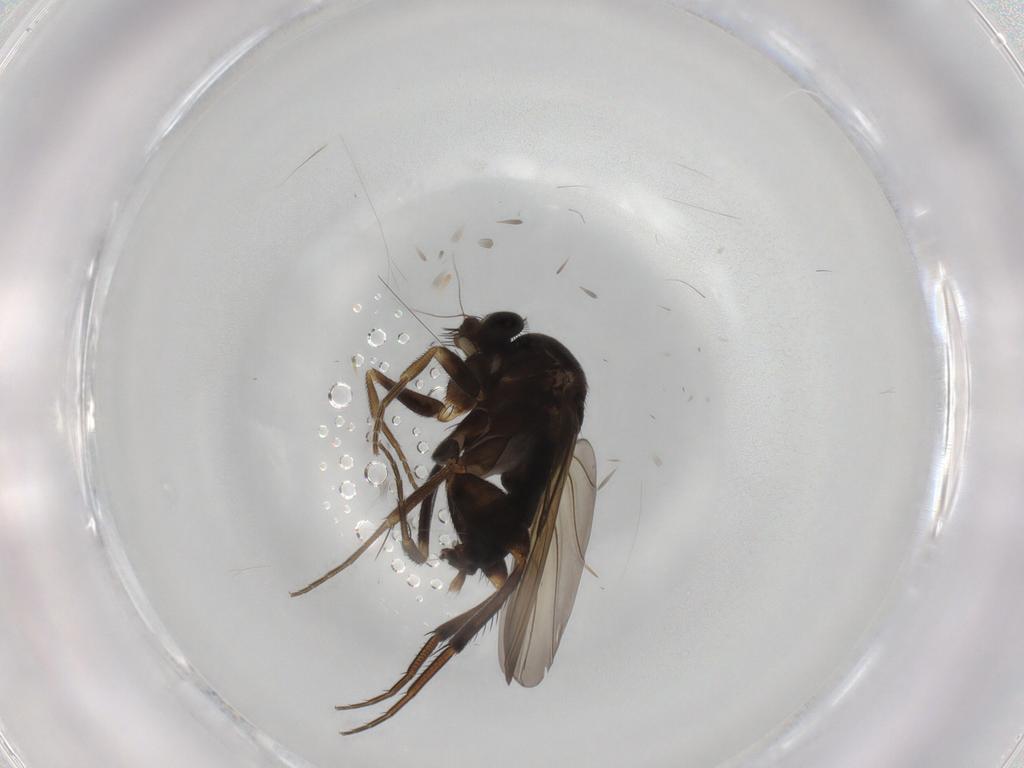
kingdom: Animalia
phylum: Arthropoda
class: Insecta
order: Diptera
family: Phoridae
